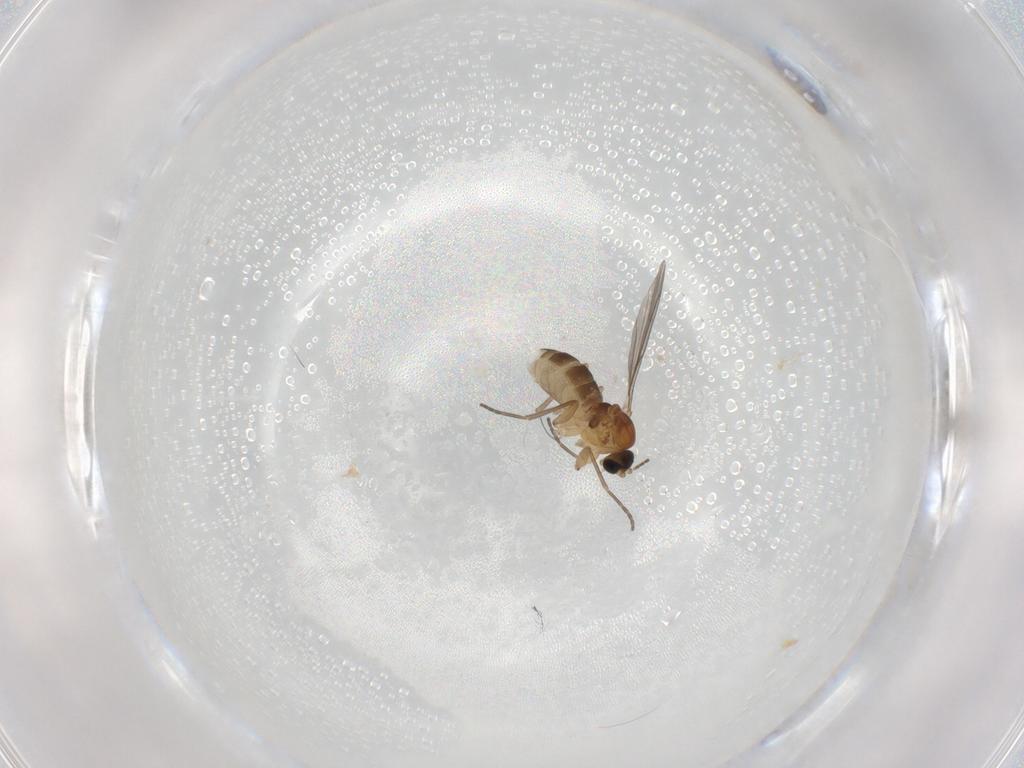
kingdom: Animalia
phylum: Arthropoda
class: Insecta
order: Diptera
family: Sciaridae
